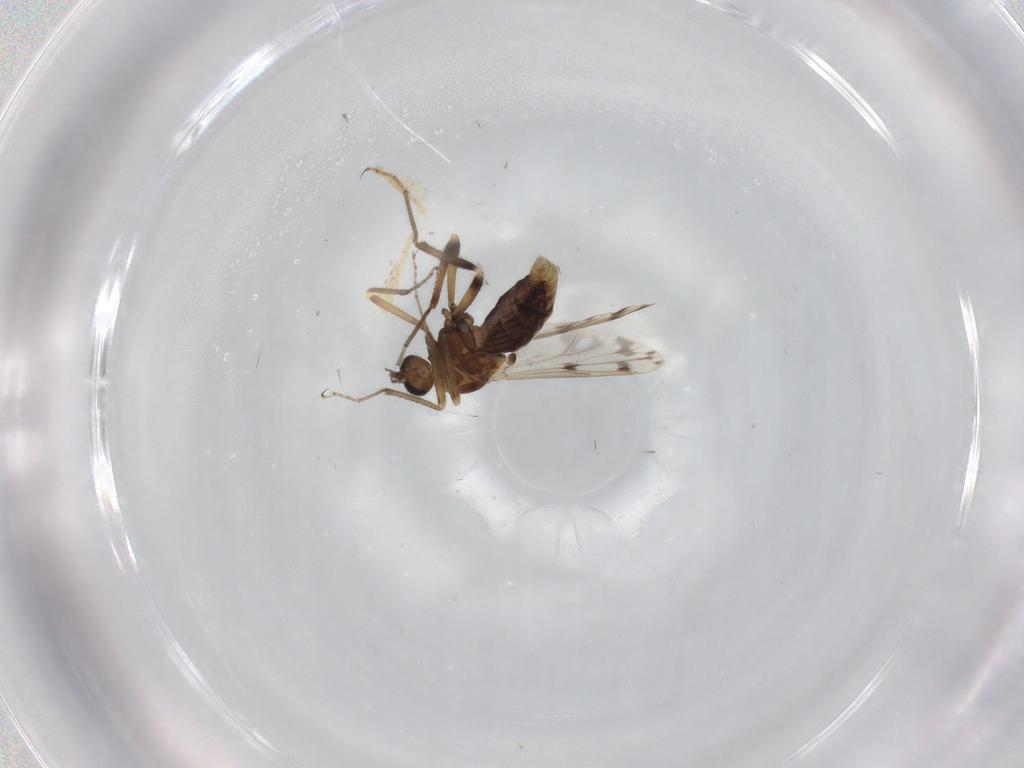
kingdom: Animalia
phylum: Arthropoda
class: Insecta
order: Diptera
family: Ceratopogonidae
